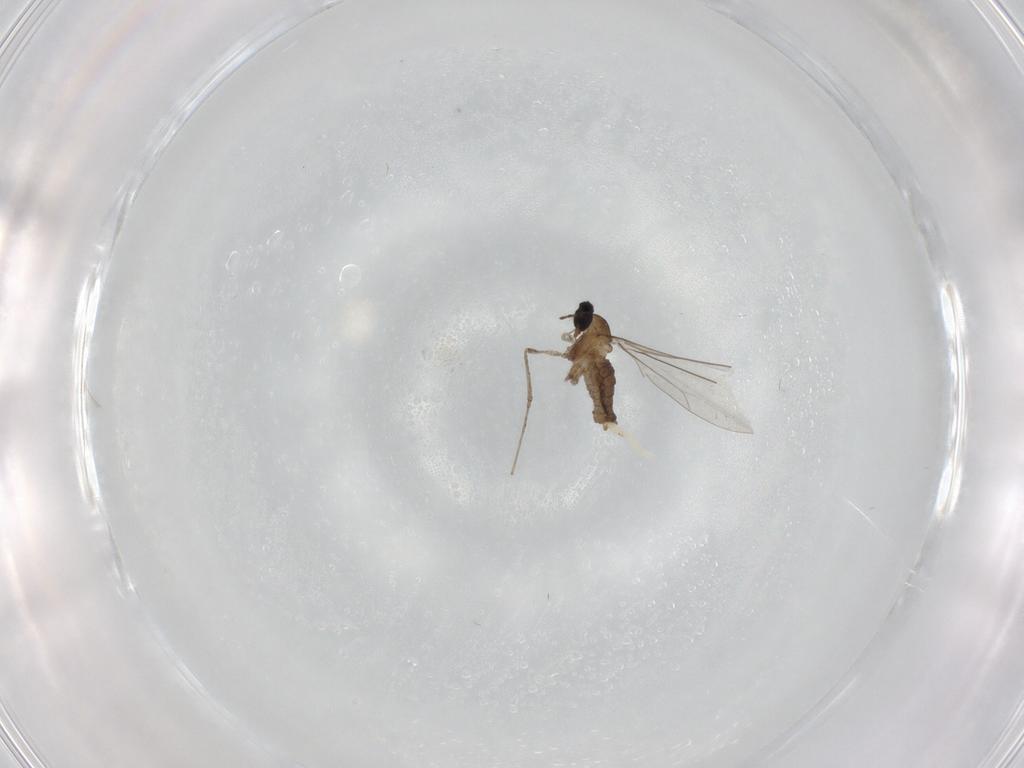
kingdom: Animalia
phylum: Arthropoda
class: Insecta
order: Diptera
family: Cecidomyiidae
